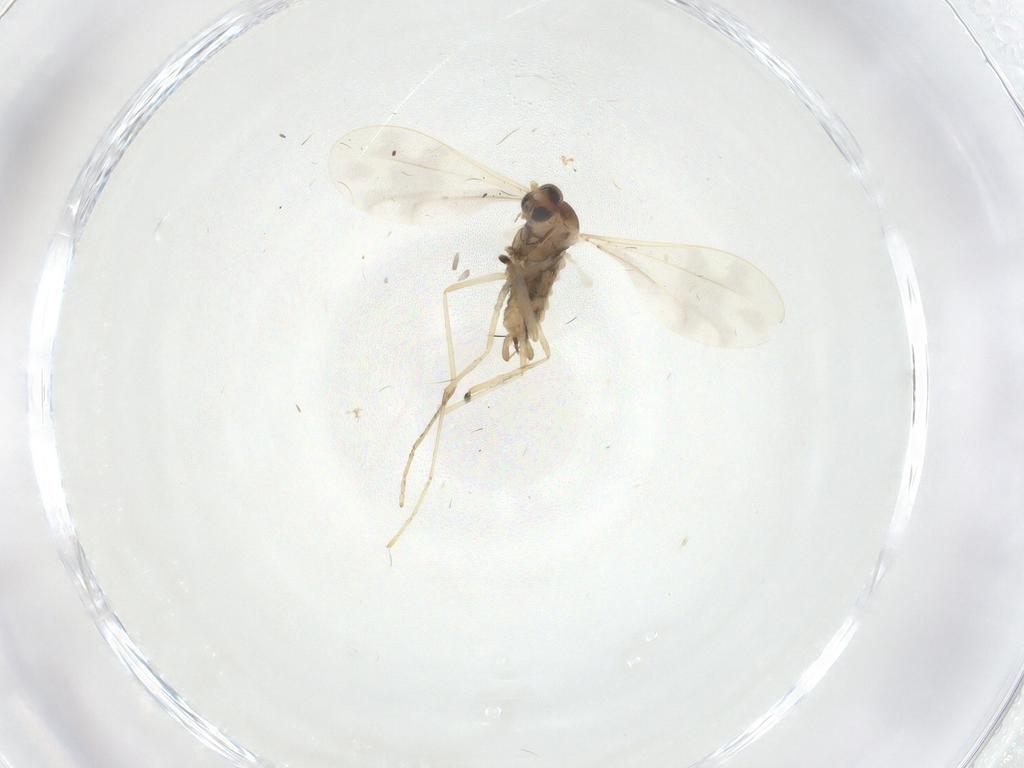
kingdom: Animalia
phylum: Arthropoda
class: Insecta
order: Diptera
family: Cecidomyiidae
